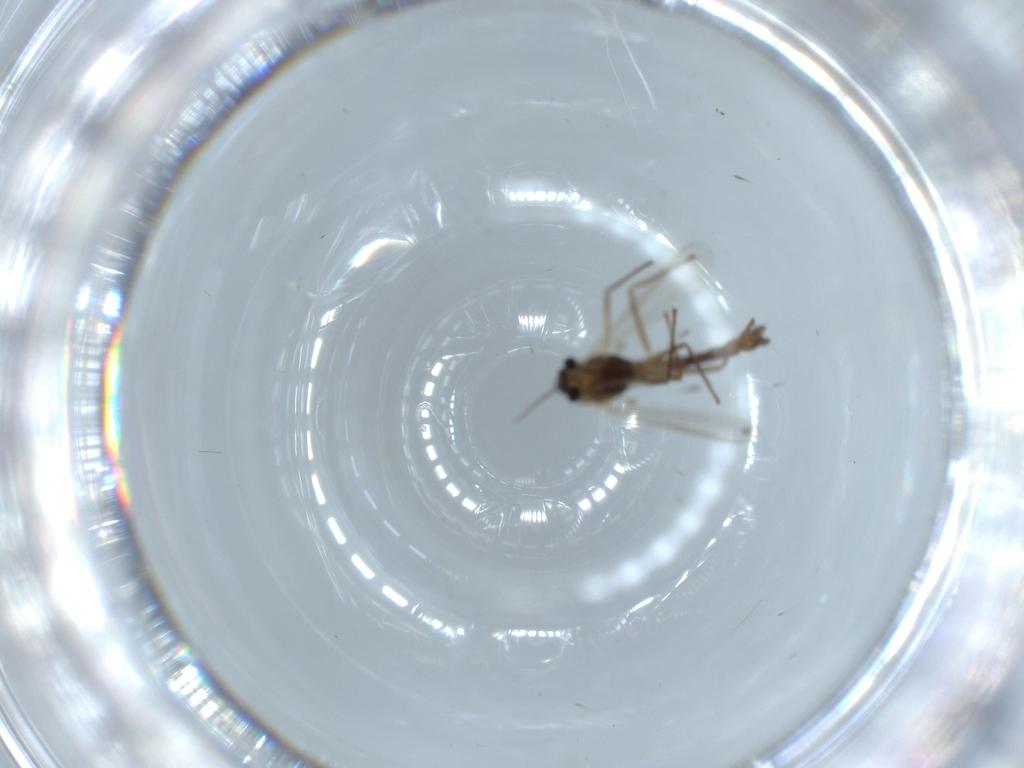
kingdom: Animalia
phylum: Arthropoda
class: Insecta
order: Diptera
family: Chironomidae
